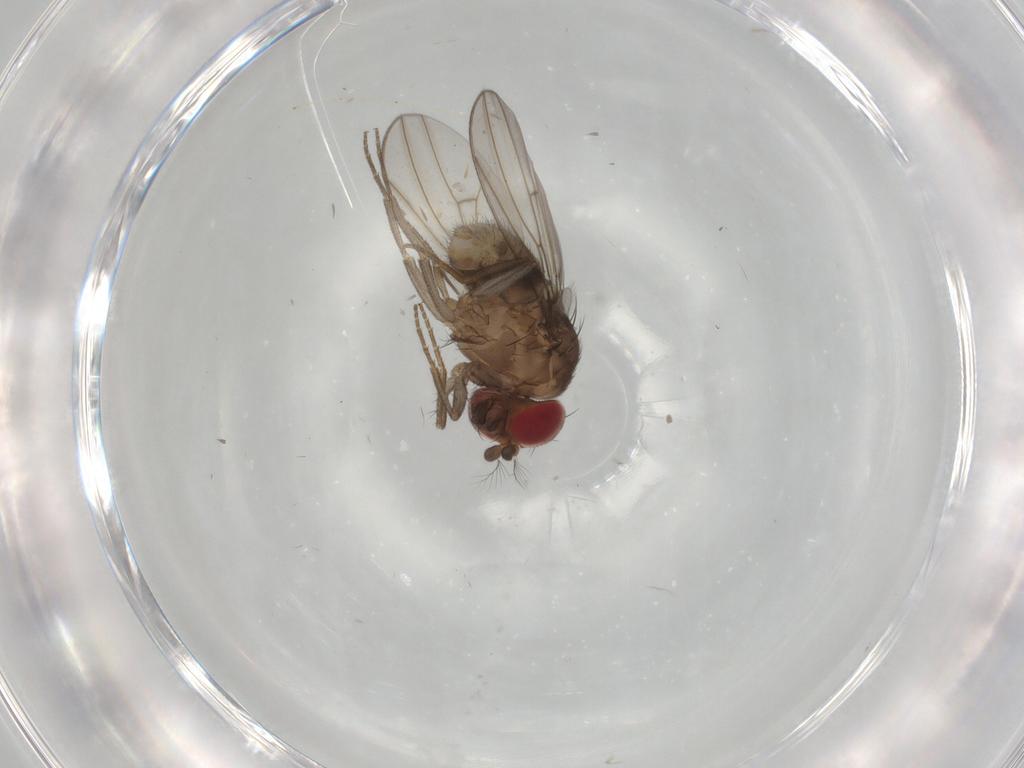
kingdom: Animalia
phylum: Arthropoda
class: Insecta
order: Diptera
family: Drosophilidae
